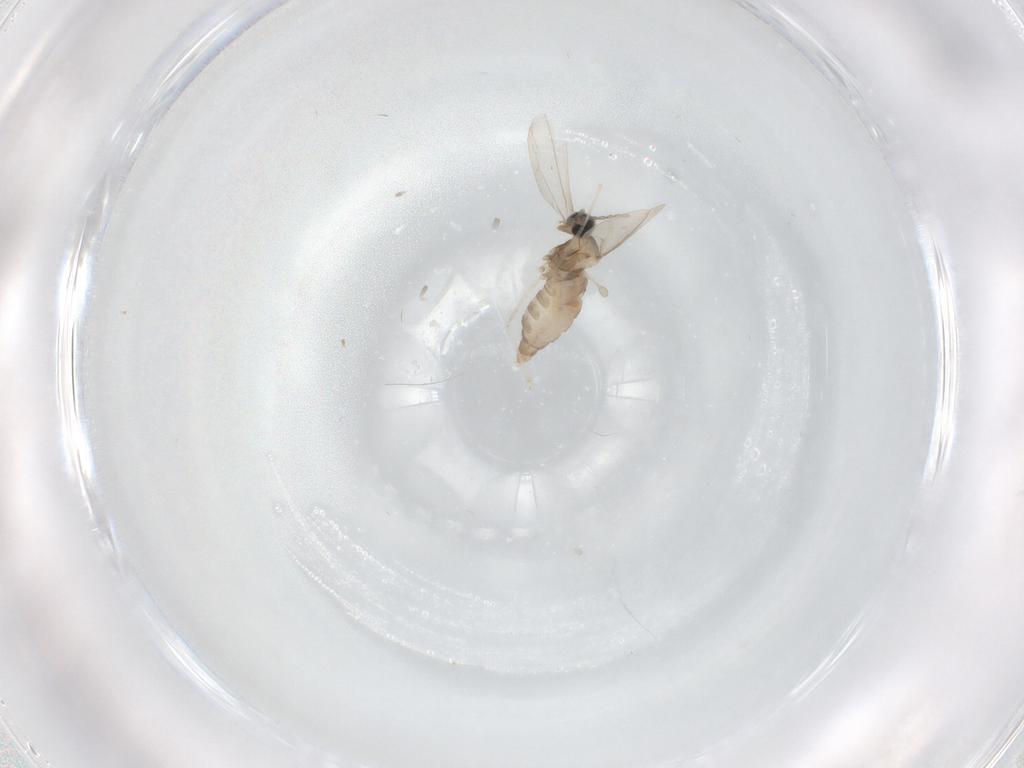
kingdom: Animalia
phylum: Arthropoda
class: Insecta
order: Diptera
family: Cecidomyiidae
